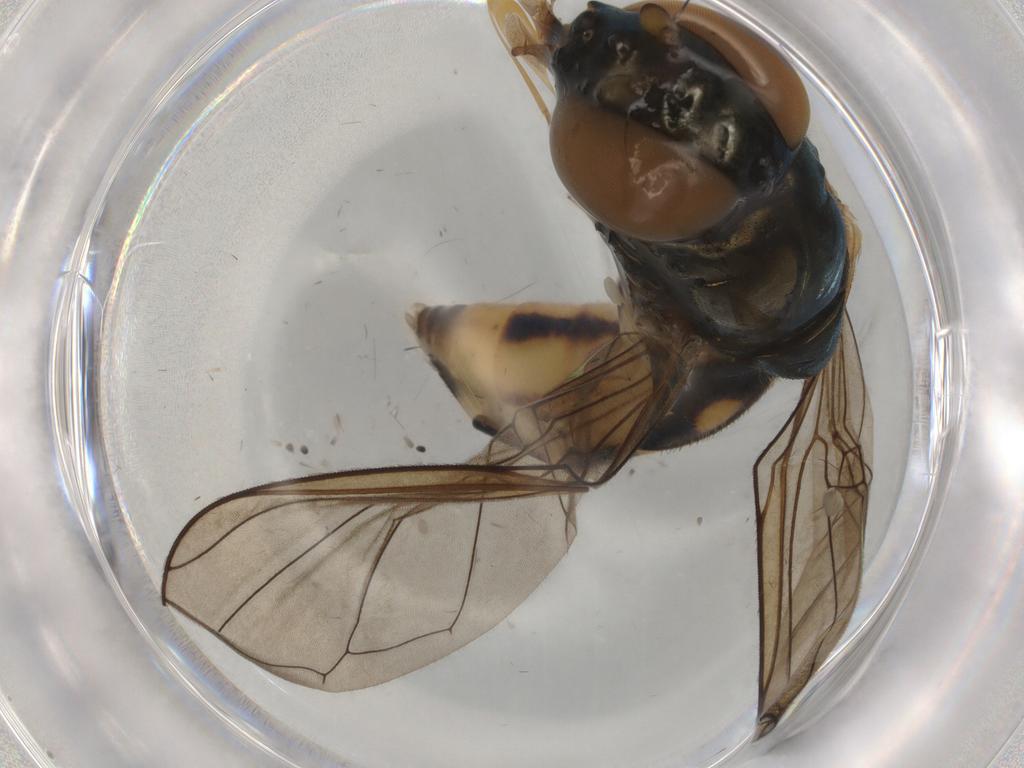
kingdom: Animalia
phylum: Arthropoda
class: Insecta
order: Diptera
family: Syrphidae
